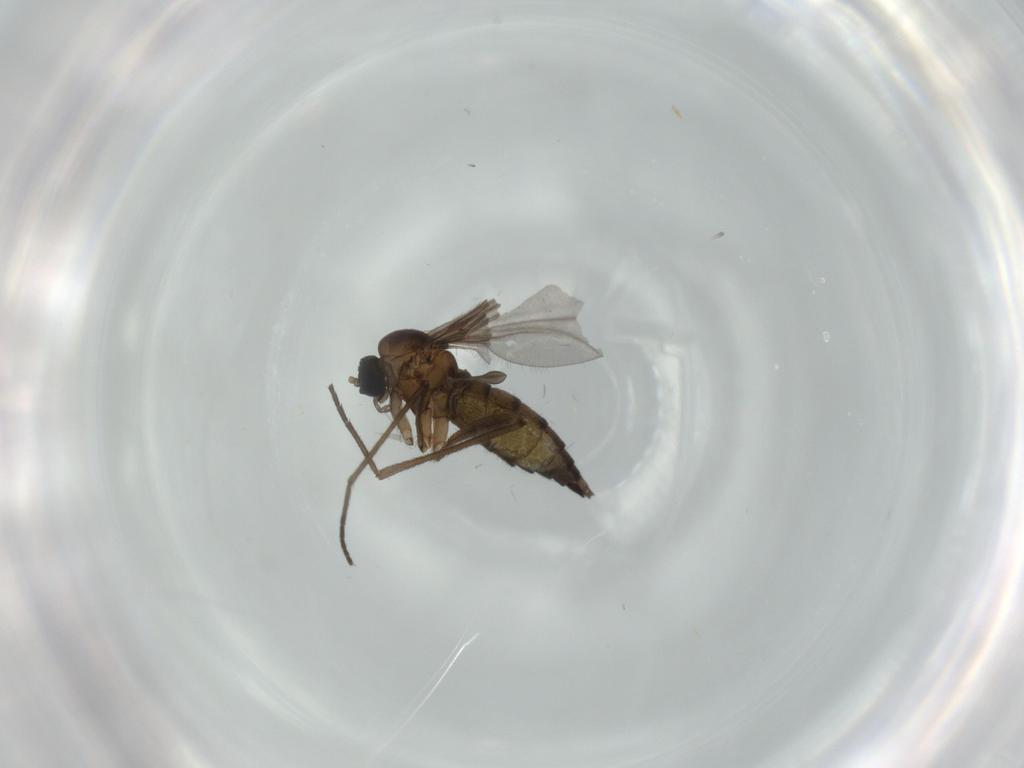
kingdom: Animalia
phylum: Arthropoda
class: Insecta
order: Diptera
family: Sciaridae
